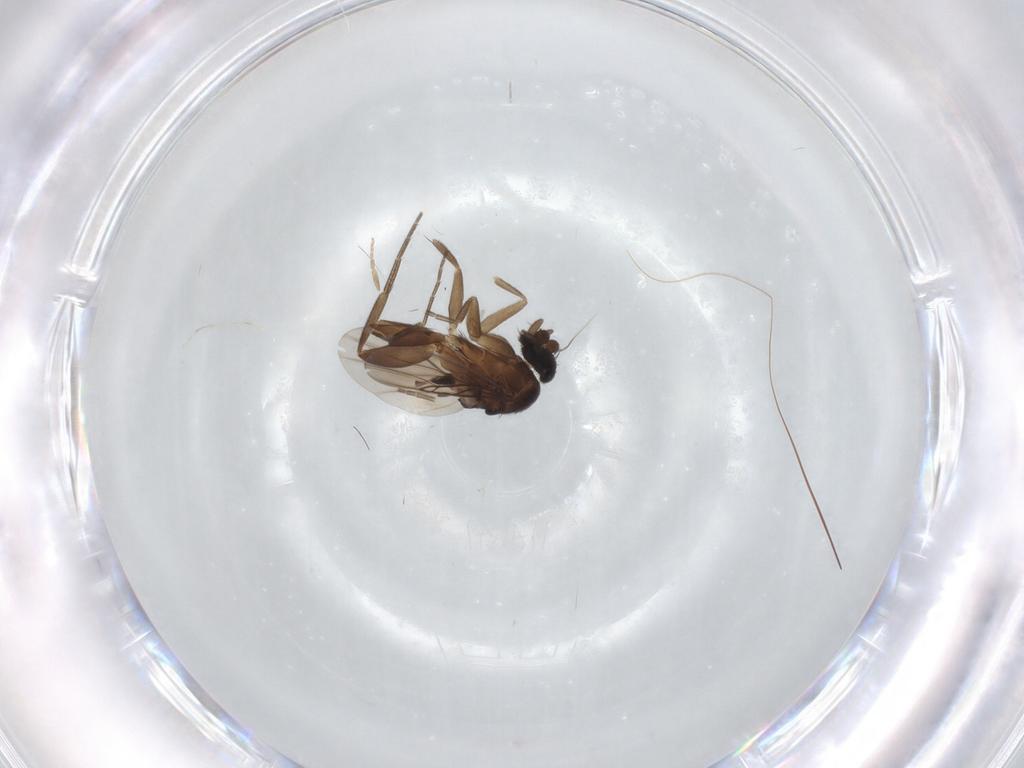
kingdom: Animalia
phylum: Arthropoda
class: Insecta
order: Diptera
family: Phoridae
